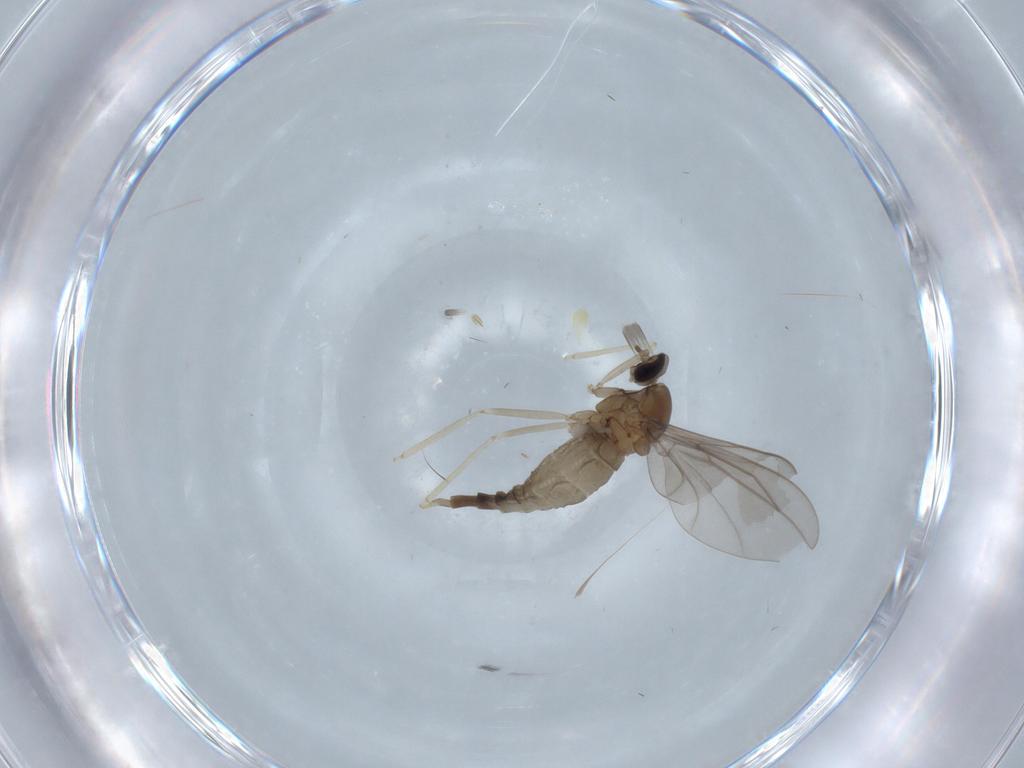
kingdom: Animalia
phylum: Arthropoda
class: Insecta
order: Diptera
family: Cecidomyiidae
